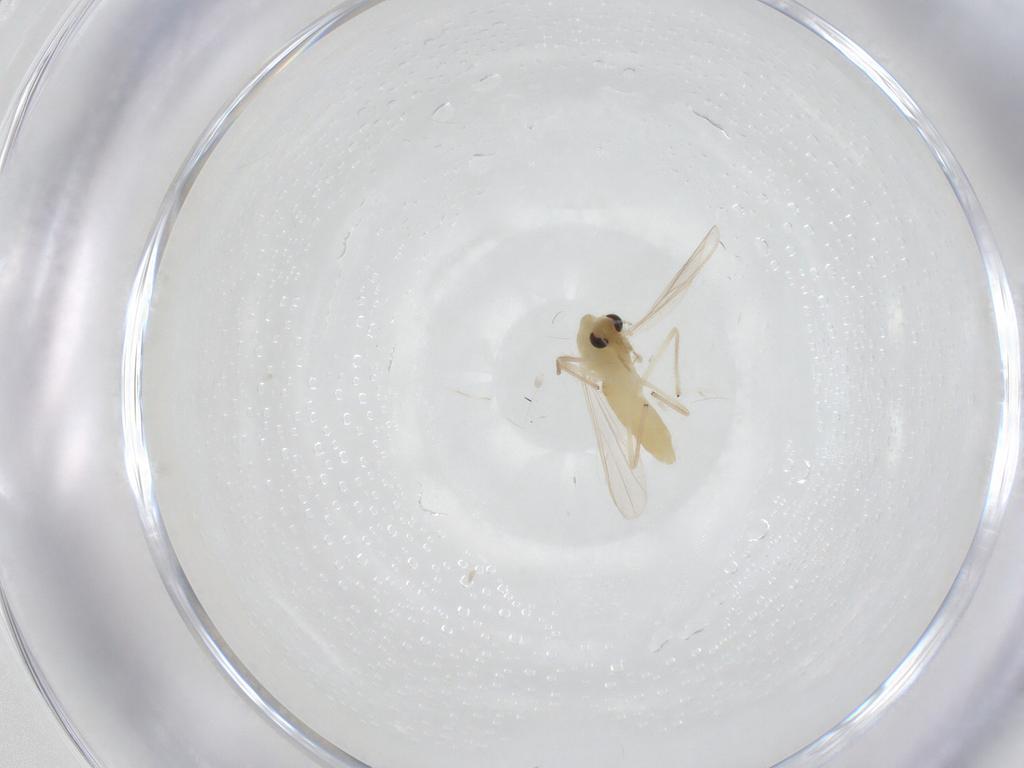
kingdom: Animalia
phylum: Arthropoda
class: Insecta
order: Diptera
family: Chironomidae
